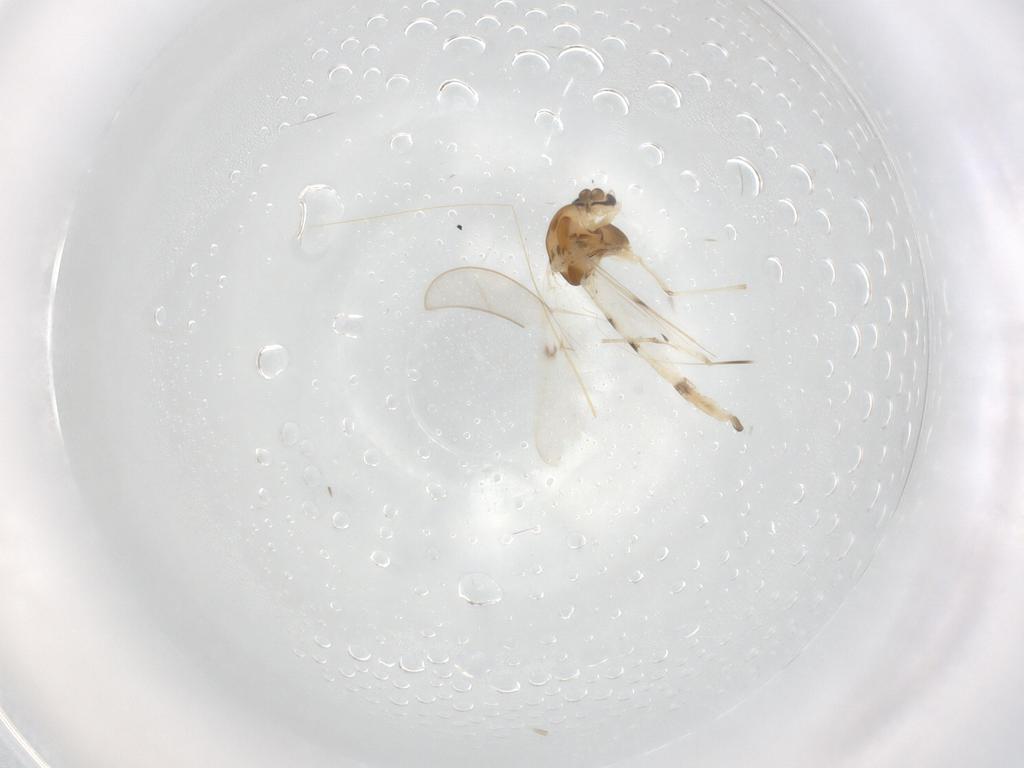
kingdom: Animalia
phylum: Arthropoda
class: Insecta
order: Diptera
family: Chironomidae
